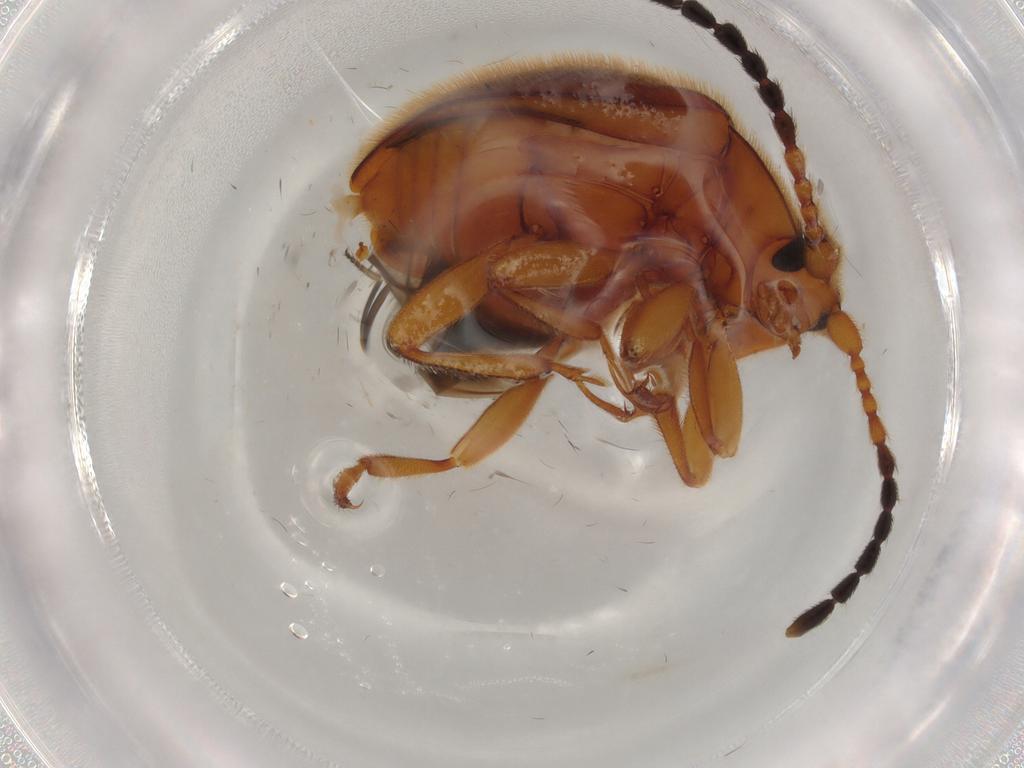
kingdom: Animalia
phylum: Arthropoda
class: Insecta
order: Coleoptera
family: Endomychidae
